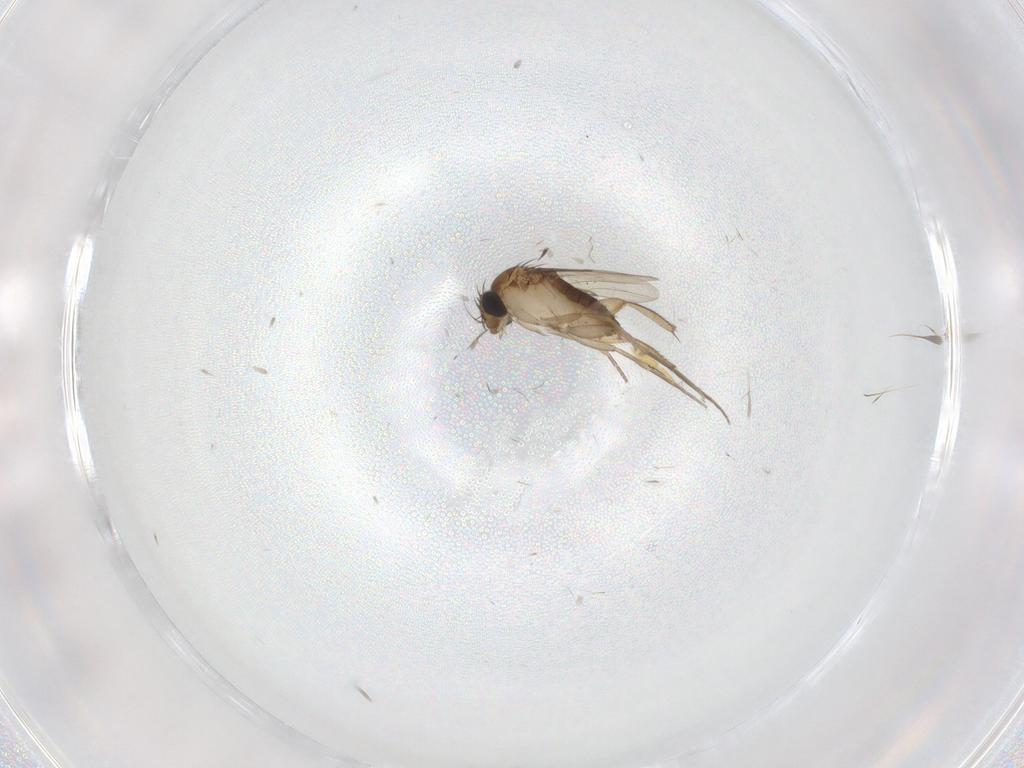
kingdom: Animalia
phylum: Arthropoda
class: Insecta
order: Diptera
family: Phoridae
